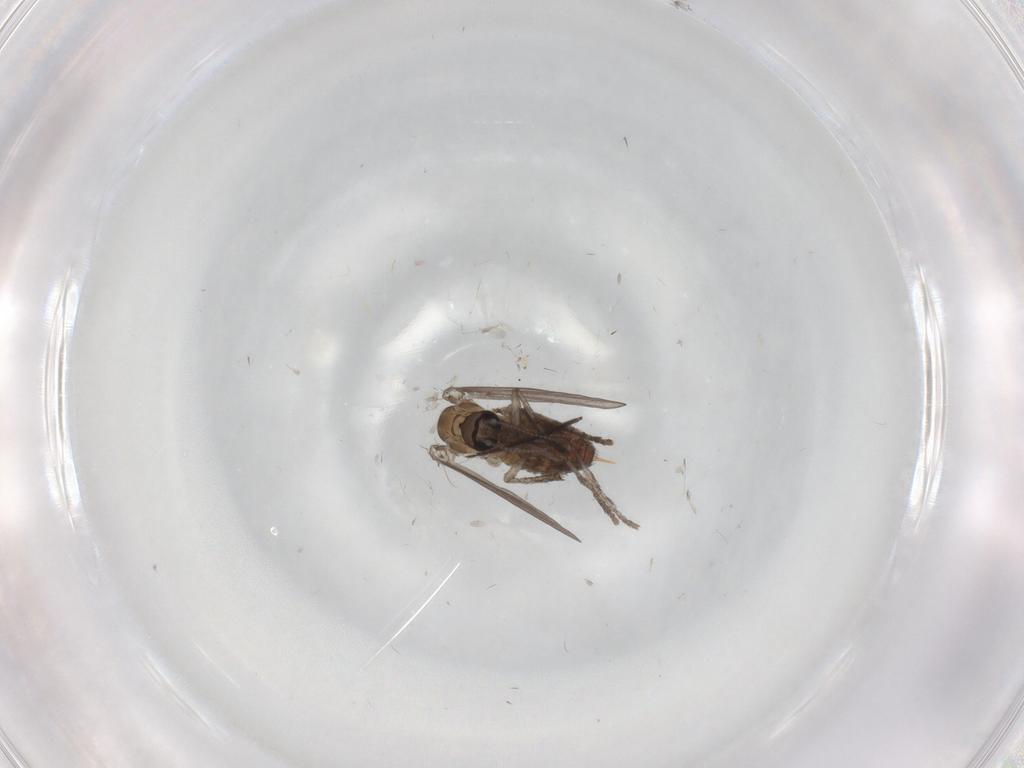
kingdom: Animalia
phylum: Arthropoda
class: Insecta
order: Diptera
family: Psychodidae
